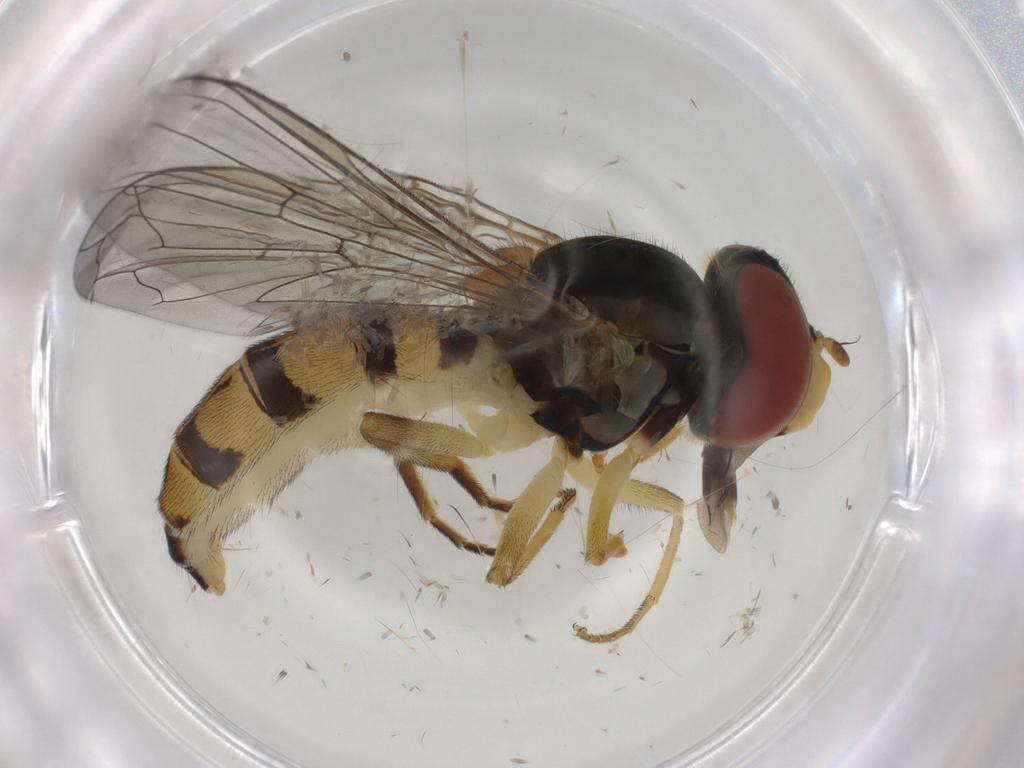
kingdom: Animalia
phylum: Arthropoda
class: Insecta
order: Diptera
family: Syrphidae
